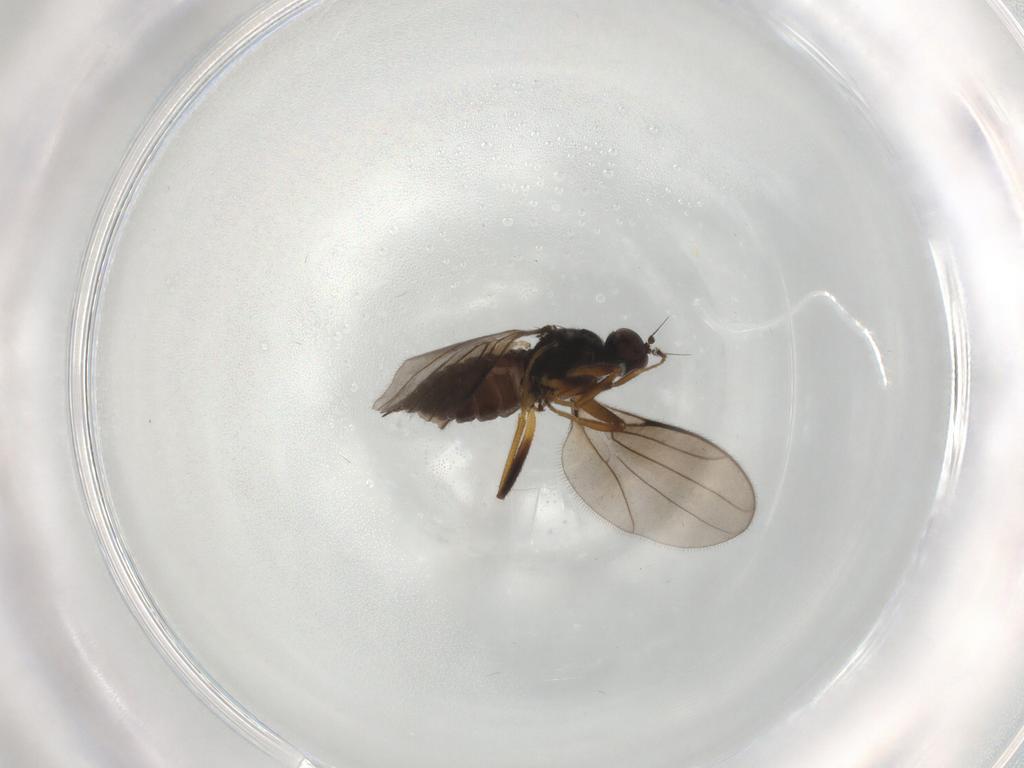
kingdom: Animalia
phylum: Arthropoda
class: Insecta
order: Diptera
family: Hybotidae
